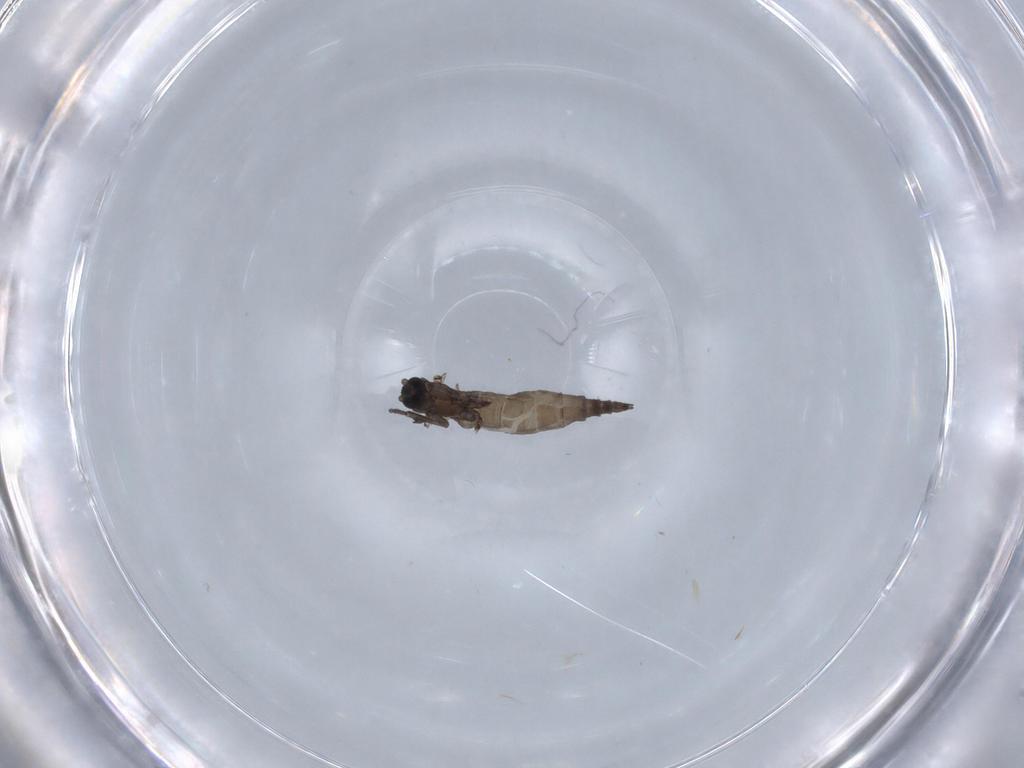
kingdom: Animalia
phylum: Arthropoda
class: Insecta
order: Diptera
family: Sciaridae
